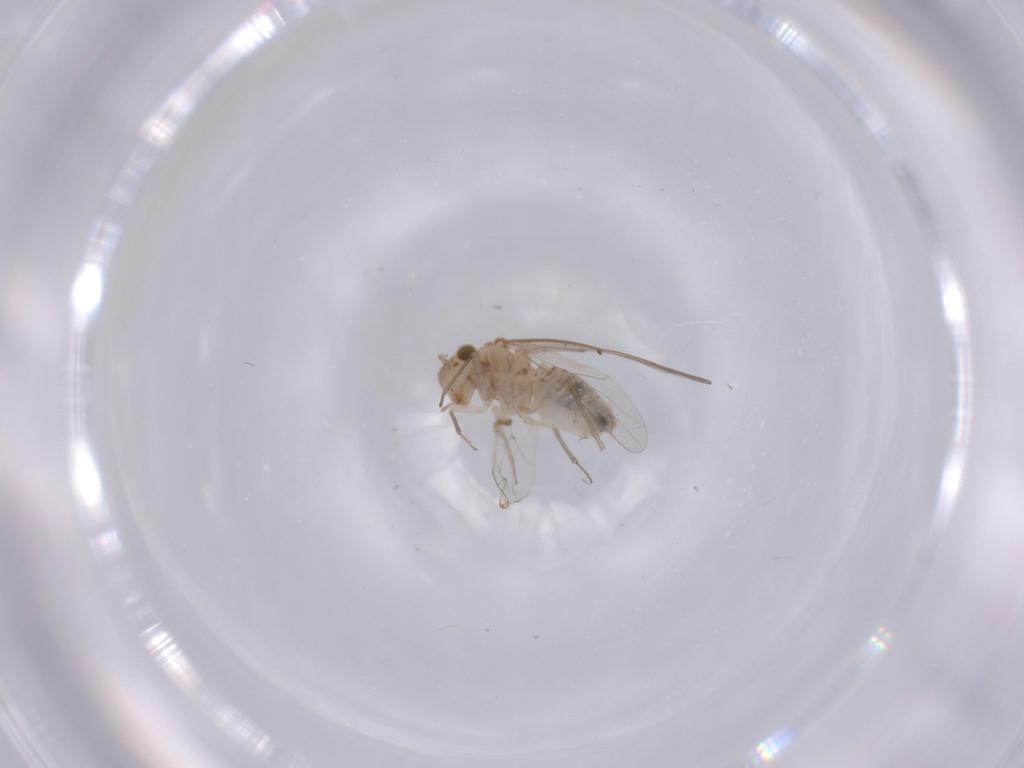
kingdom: Animalia
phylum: Arthropoda
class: Insecta
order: Psocodea
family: Lachesillidae
